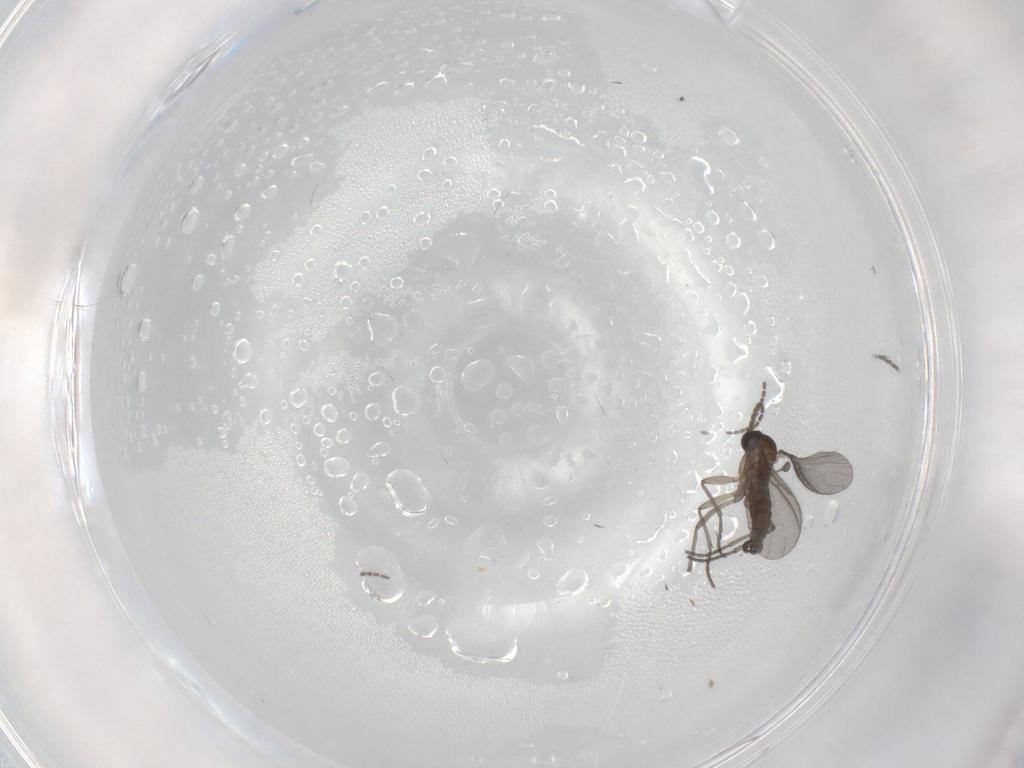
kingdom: Animalia
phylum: Arthropoda
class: Insecta
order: Diptera
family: Sciaridae
